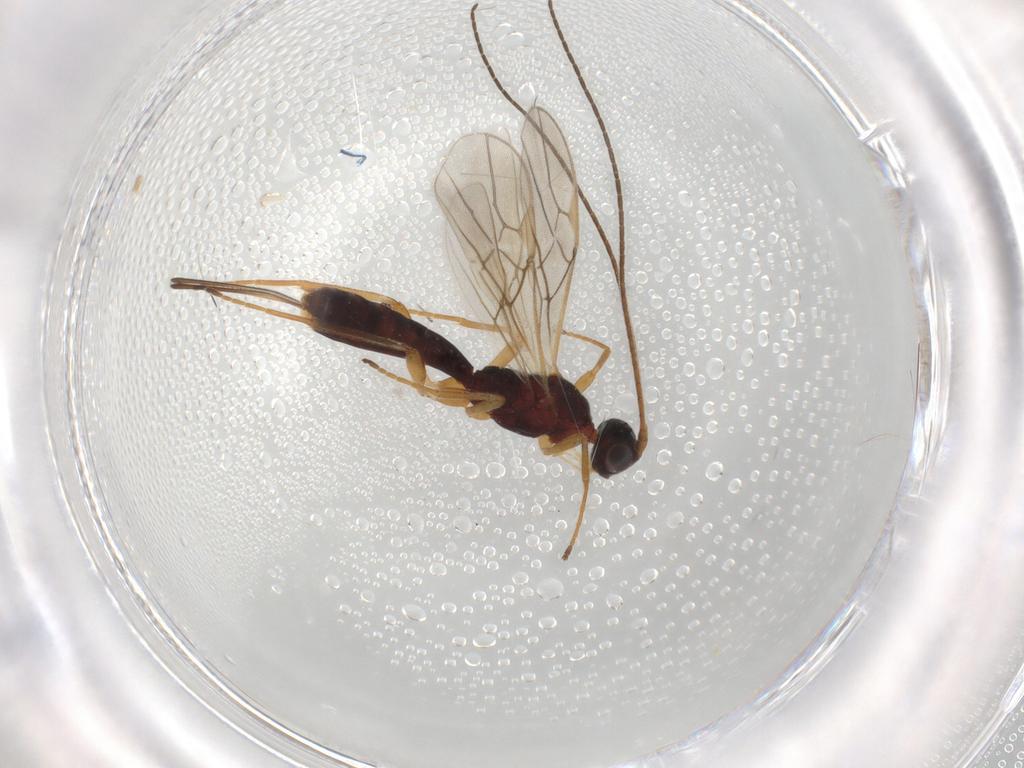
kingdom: Animalia
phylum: Arthropoda
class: Insecta
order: Hymenoptera
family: Braconidae
